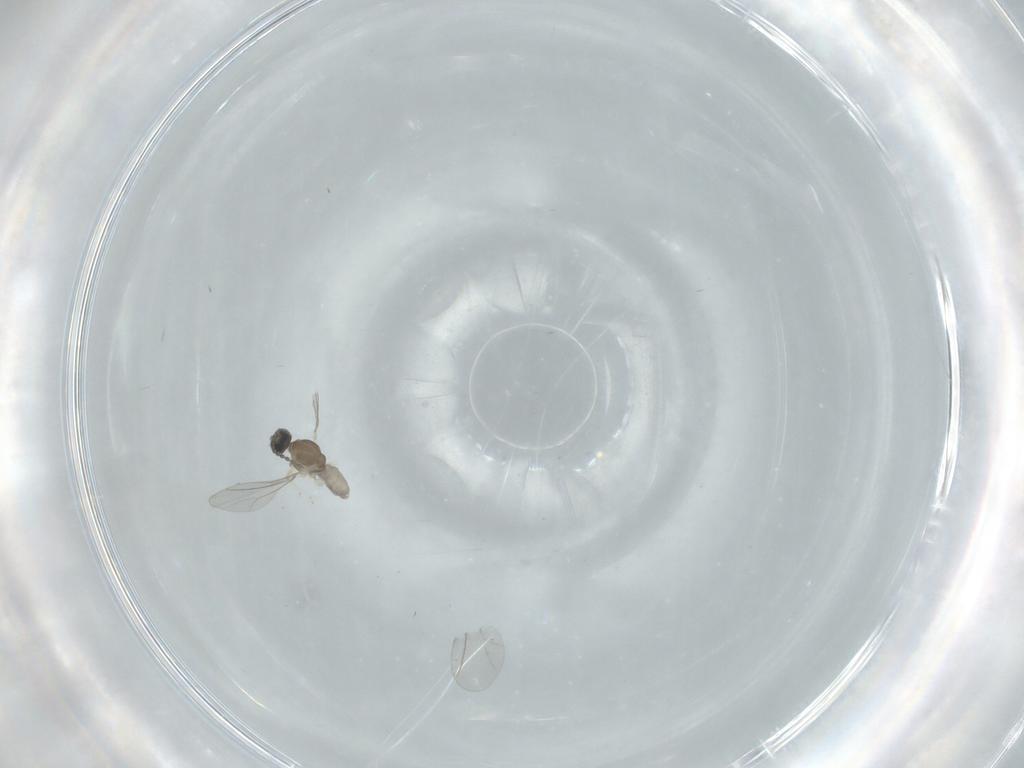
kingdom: Animalia
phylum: Arthropoda
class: Insecta
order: Diptera
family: Cecidomyiidae
